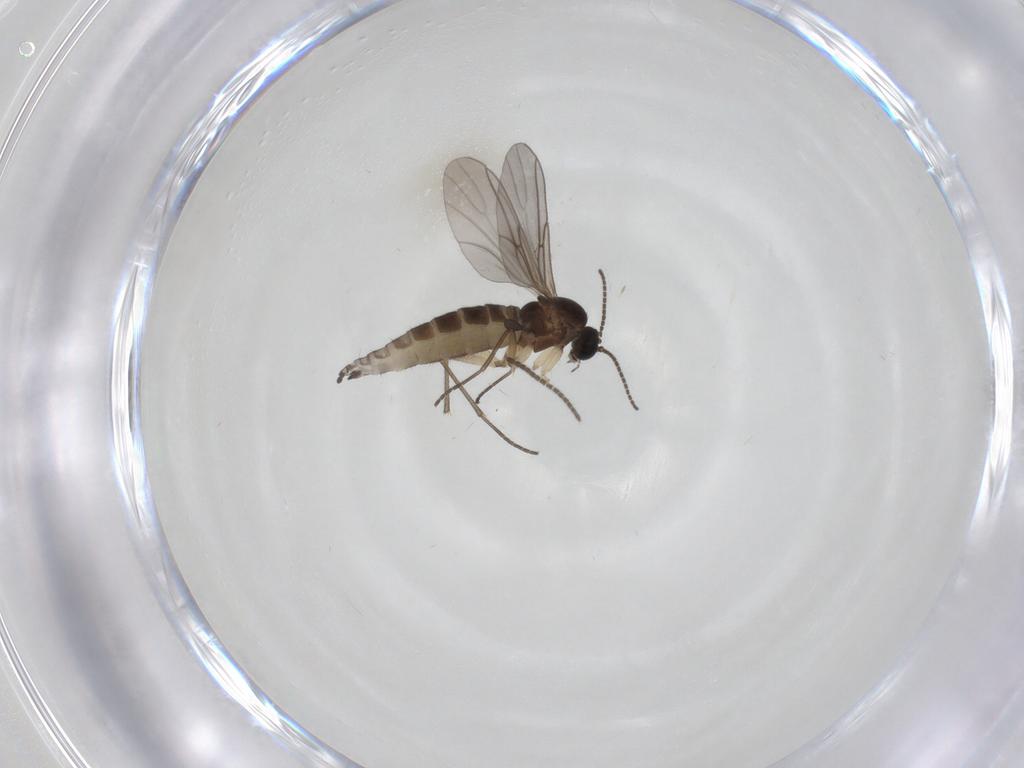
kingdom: Animalia
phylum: Arthropoda
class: Insecta
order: Diptera
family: Sciaridae
